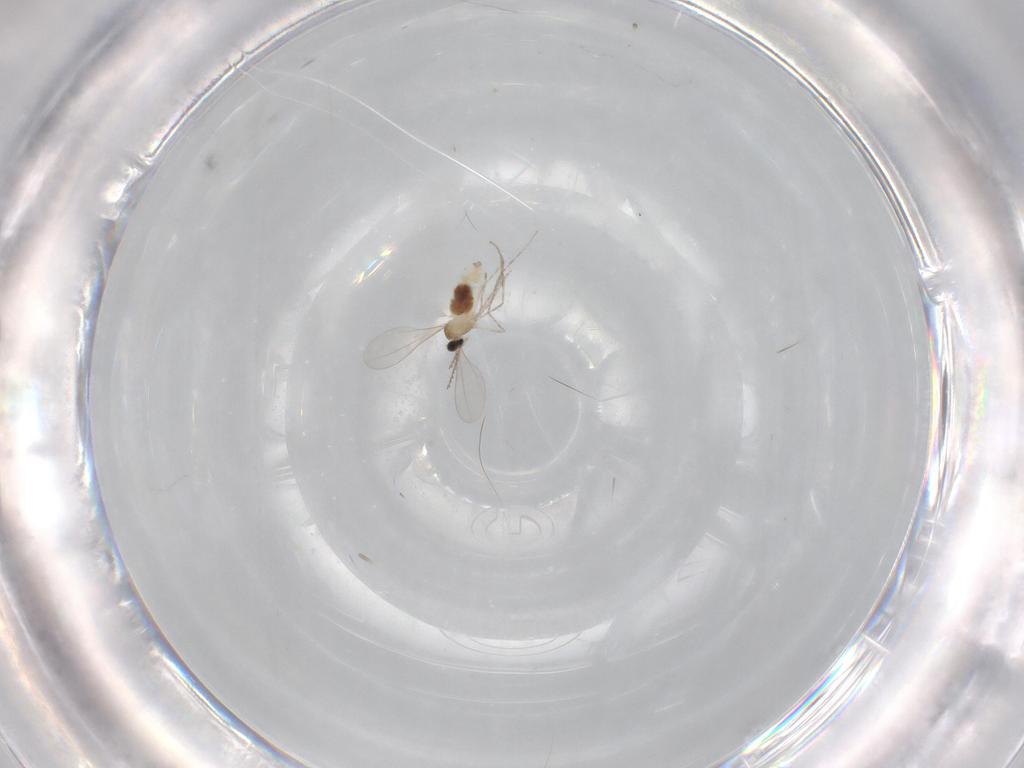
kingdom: Animalia
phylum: Arthropoda
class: Insecta
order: Diptera
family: Cecidomyiidae
